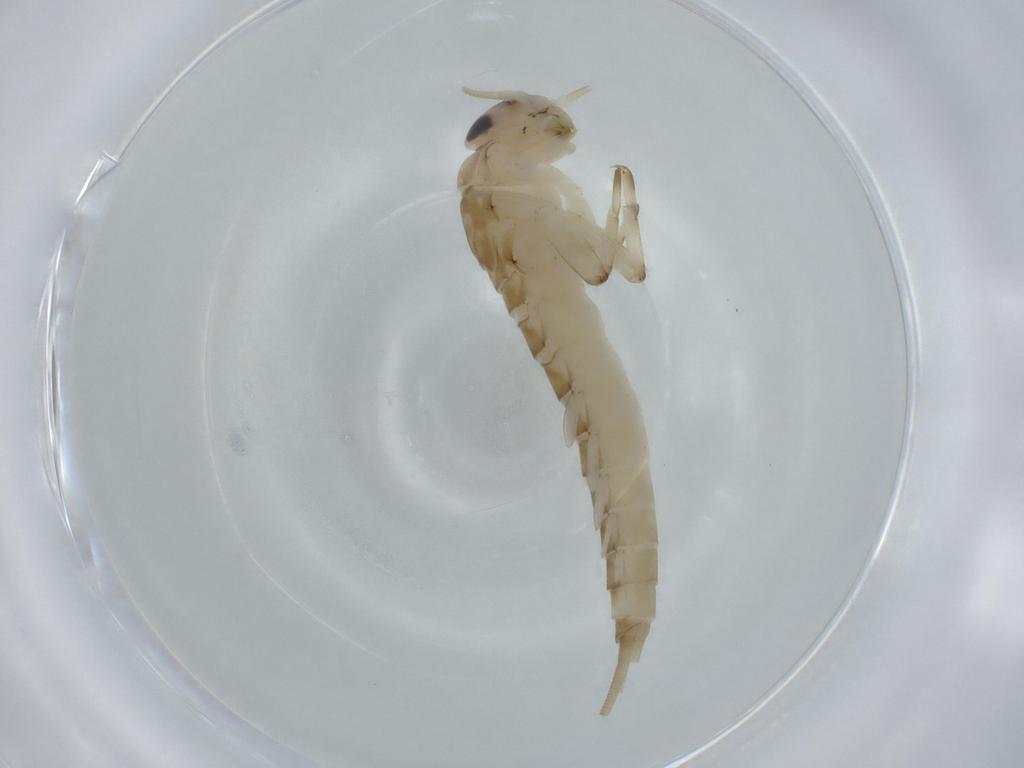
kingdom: Animalia
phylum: Arthropoda
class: Insecta
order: Ephemeroptera
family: Baetidae
